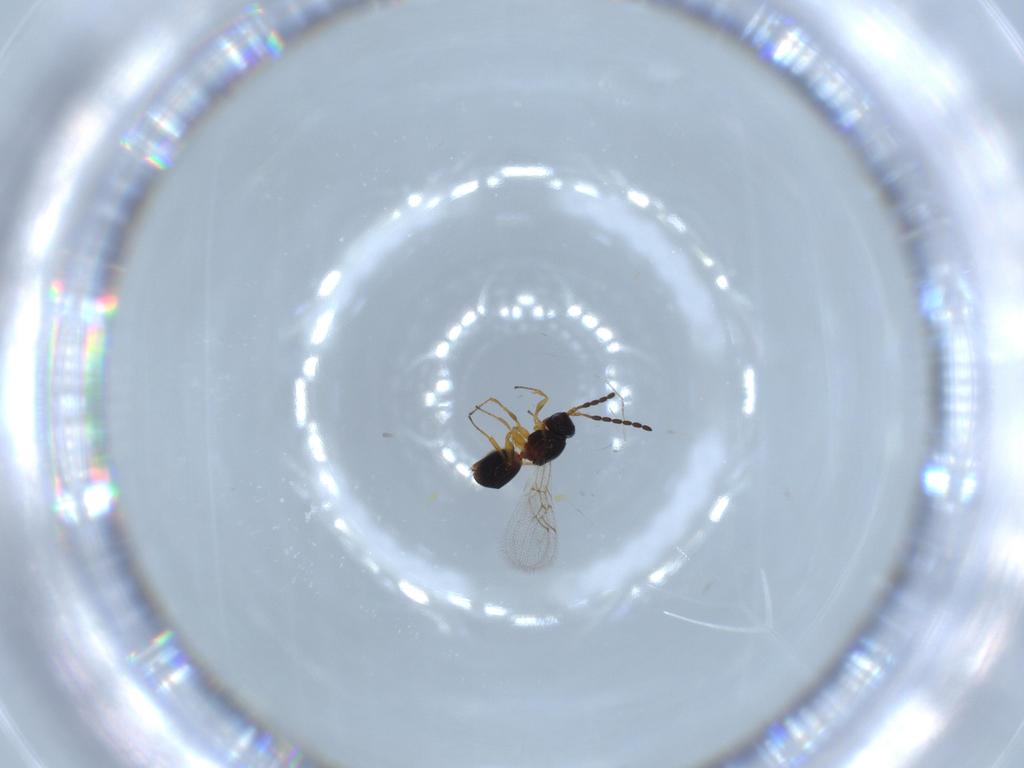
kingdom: Animalia
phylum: Arthropoda
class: Insecta
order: Hymenoptera
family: Figitidae
